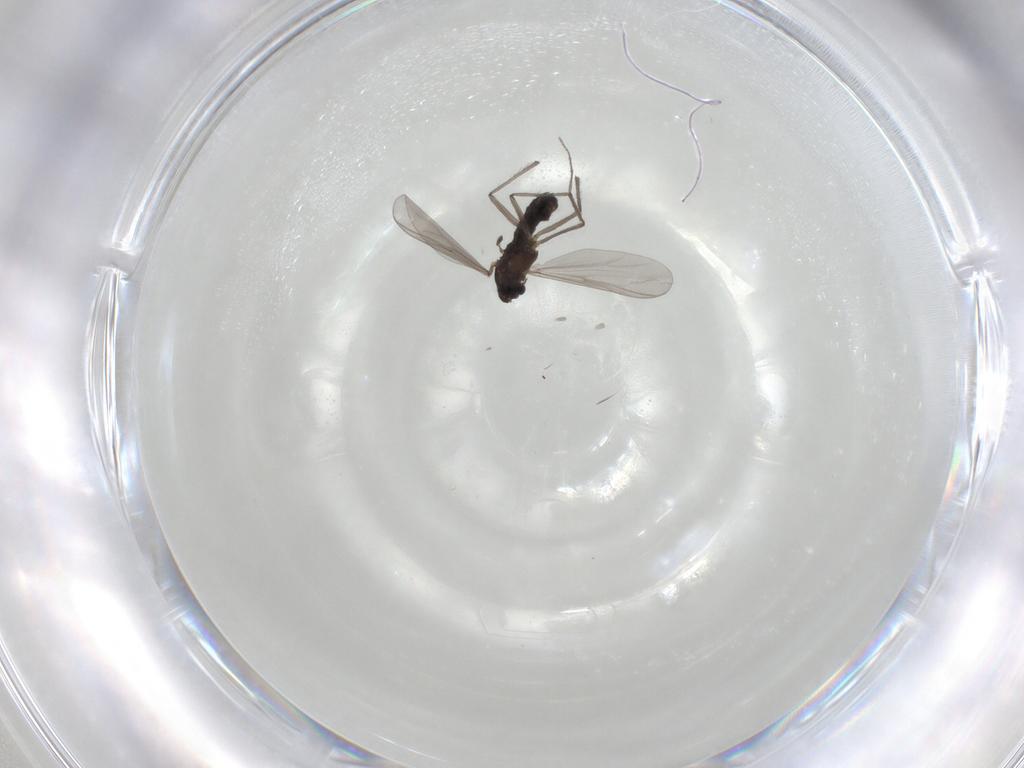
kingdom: Animalia
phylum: Arthropoda
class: Insecta
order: Diptera
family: Chironomidae
